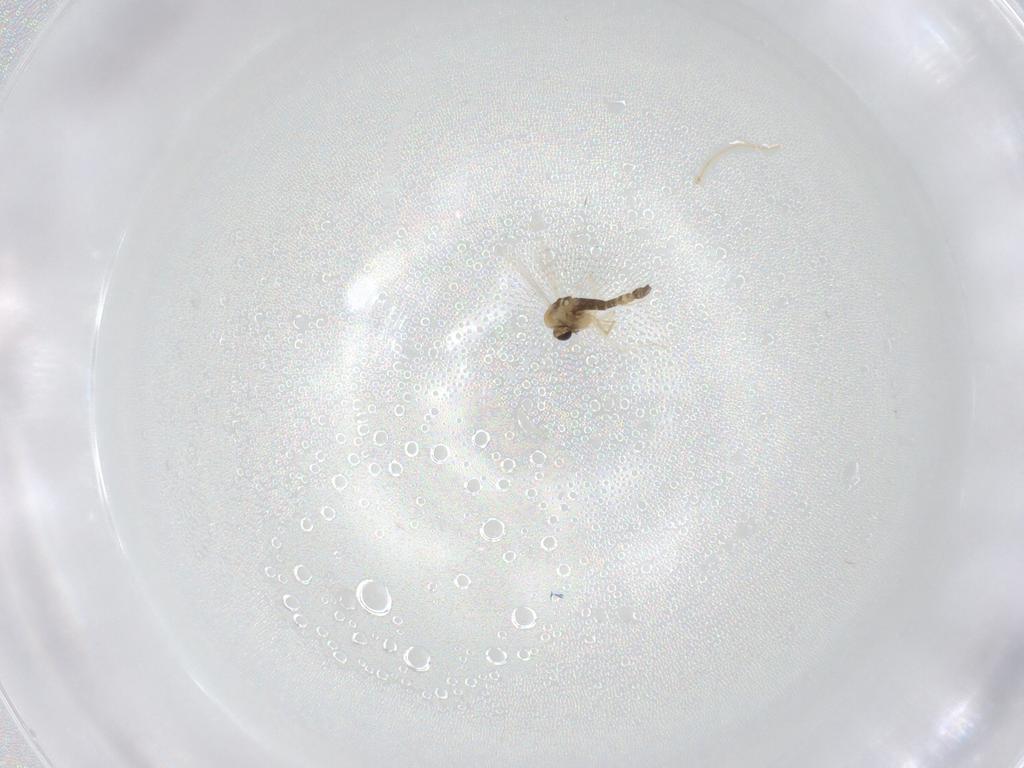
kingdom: Animalia
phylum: Arthropoda
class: Insecta
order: Diptera
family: Chironomidae
